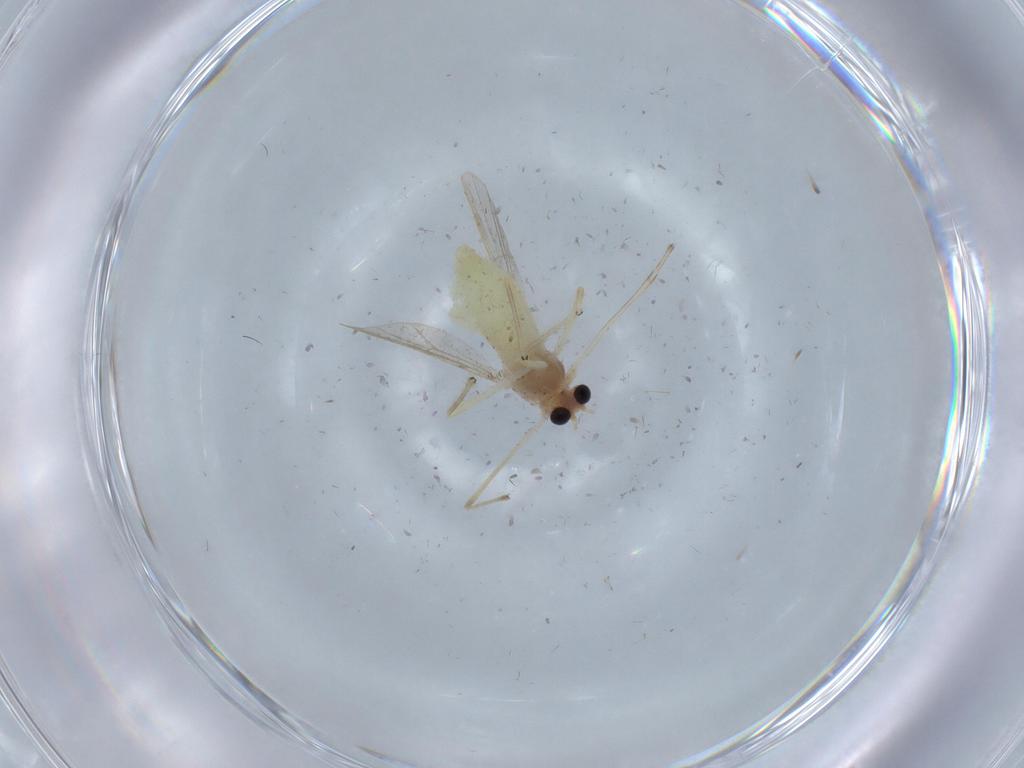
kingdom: Animalia
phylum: Arthropoda
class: Insecta
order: Diptera
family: Chironomidae
